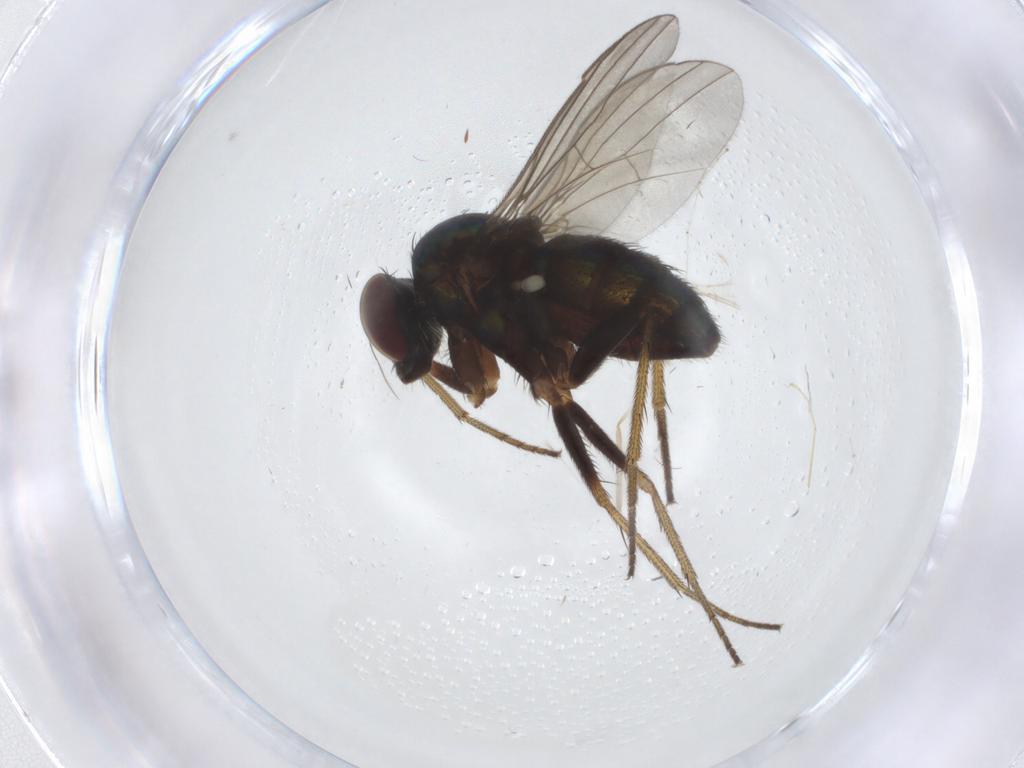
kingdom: Animalia
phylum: Arthropoda
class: Insecta
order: Diptera
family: Dolichopodidae
